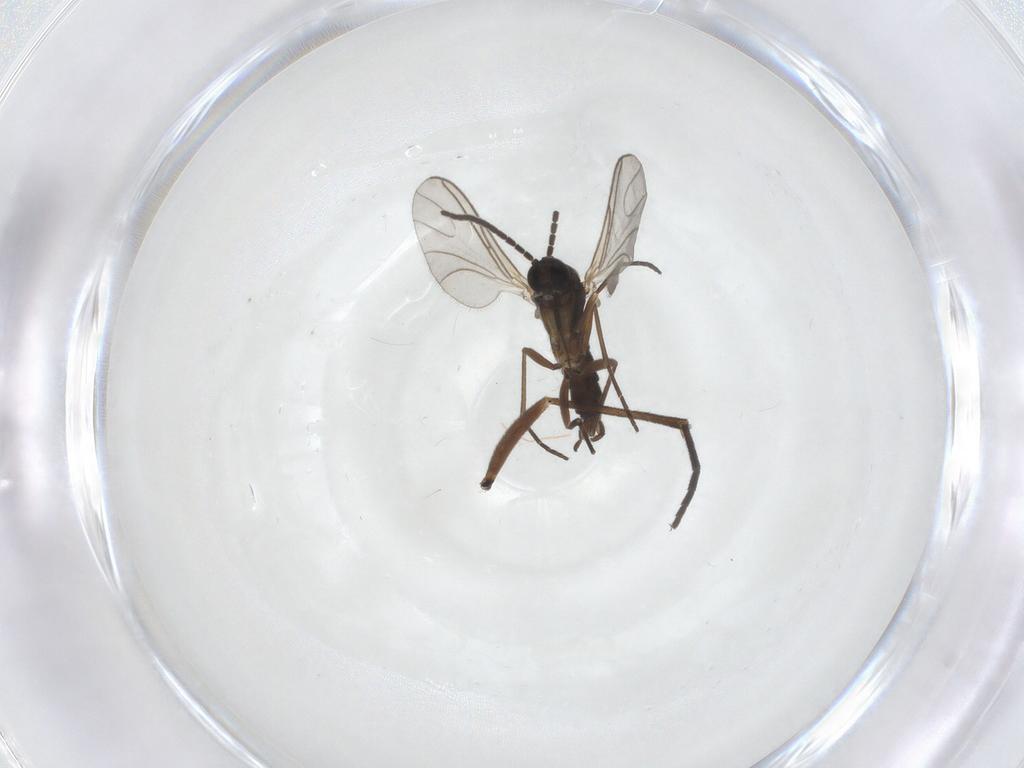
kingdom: Animalia
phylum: Arthropoda
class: Insecta
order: Diptera
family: Sciaridae
